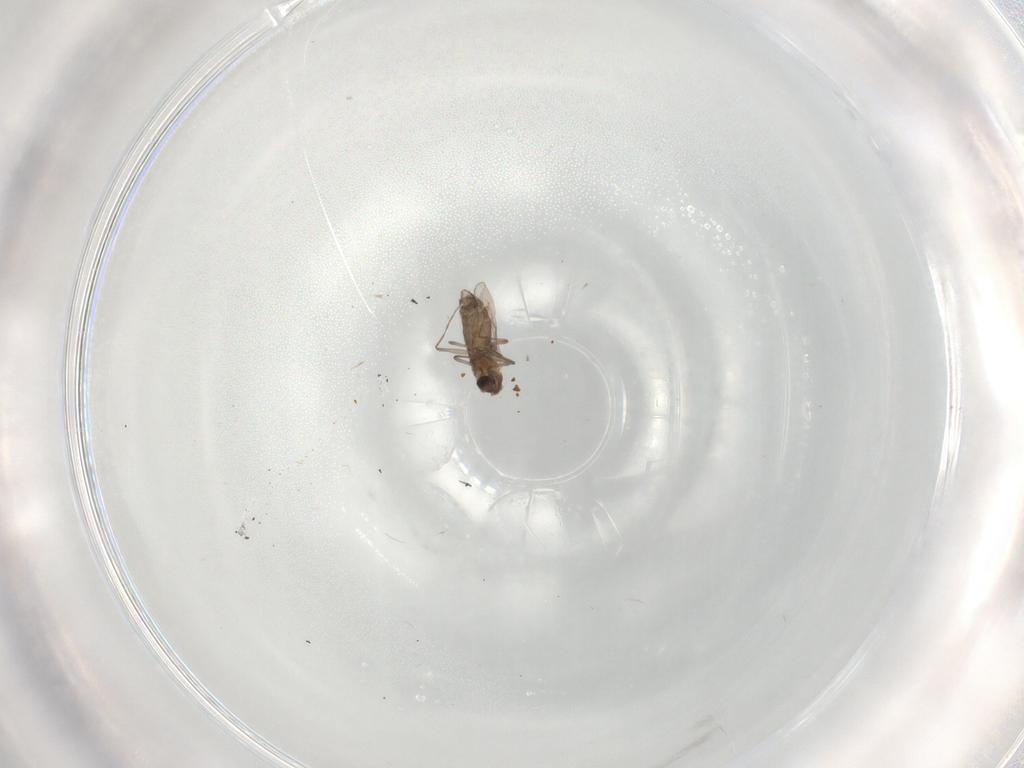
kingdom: Animalia
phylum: Arthropoda
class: Insecta
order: Diptera
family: Chironomidae
